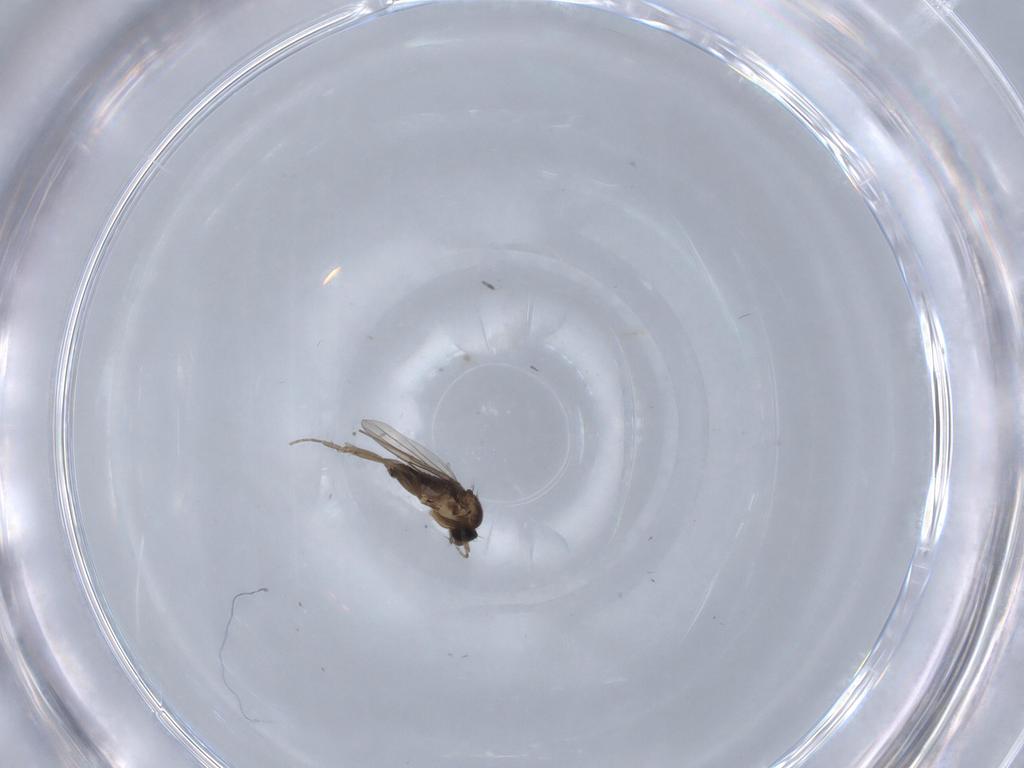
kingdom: Animalia
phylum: Arthropoda
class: Insecta
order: Diptera
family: Phoridae
